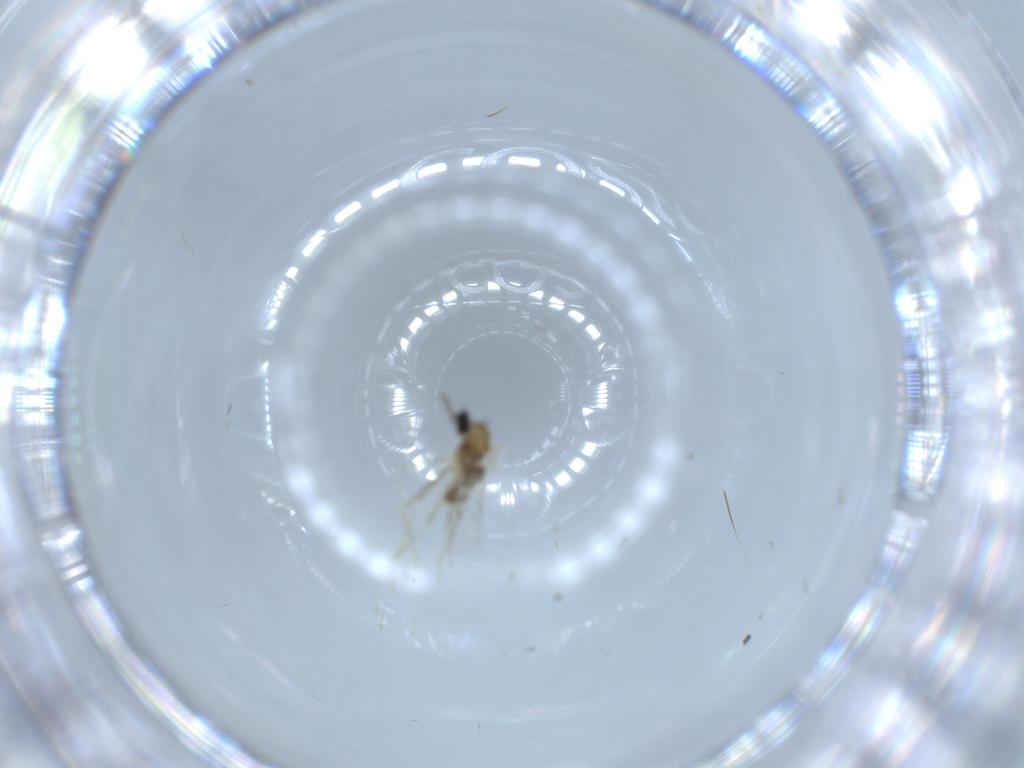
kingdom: Animalia
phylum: Arthropoda
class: Insecta
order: Diptera
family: Cecidomyiidae
